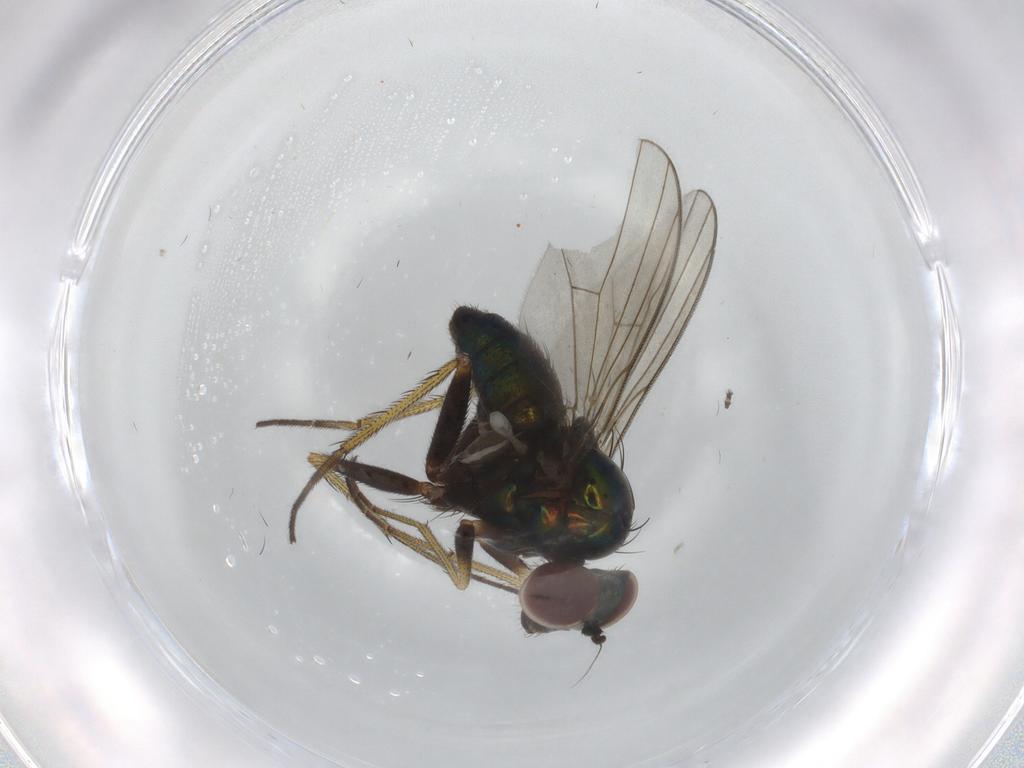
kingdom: Animalia
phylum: Arthropoda
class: Insecta
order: Diptera
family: Dolichopodidae
